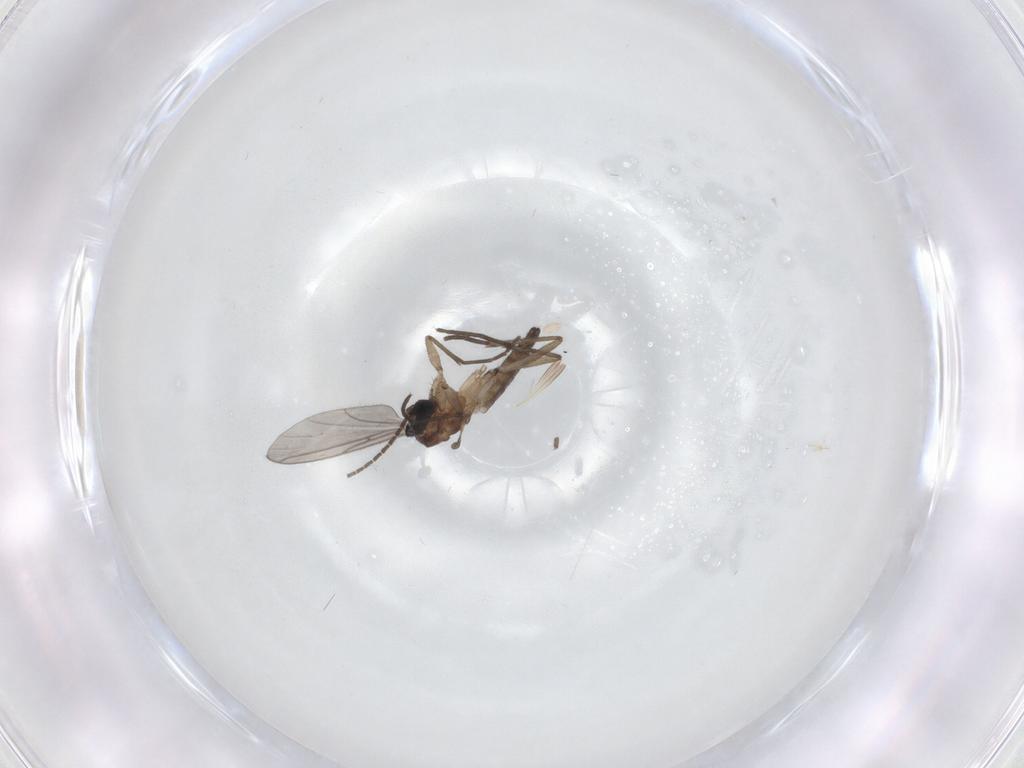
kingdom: Animalia
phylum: Arthropoda
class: Insecta
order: Diptera
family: Sciaridae
